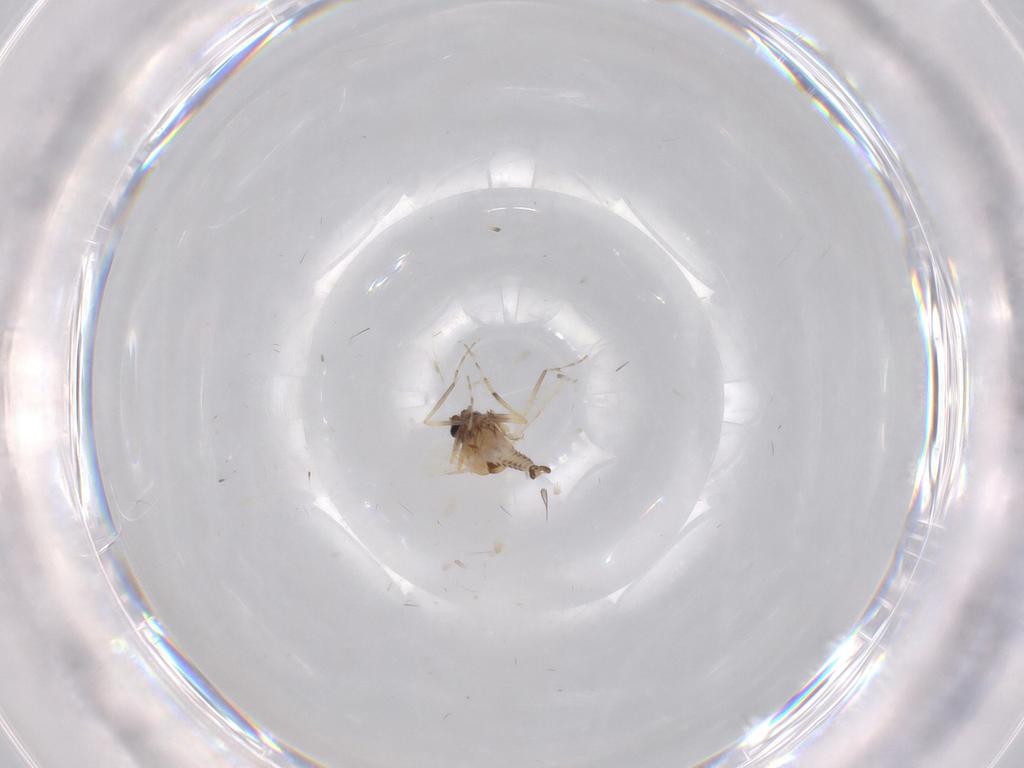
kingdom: Animalia
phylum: Arthropoda
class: Insecta
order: Diptera
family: Ceratopogonidae
